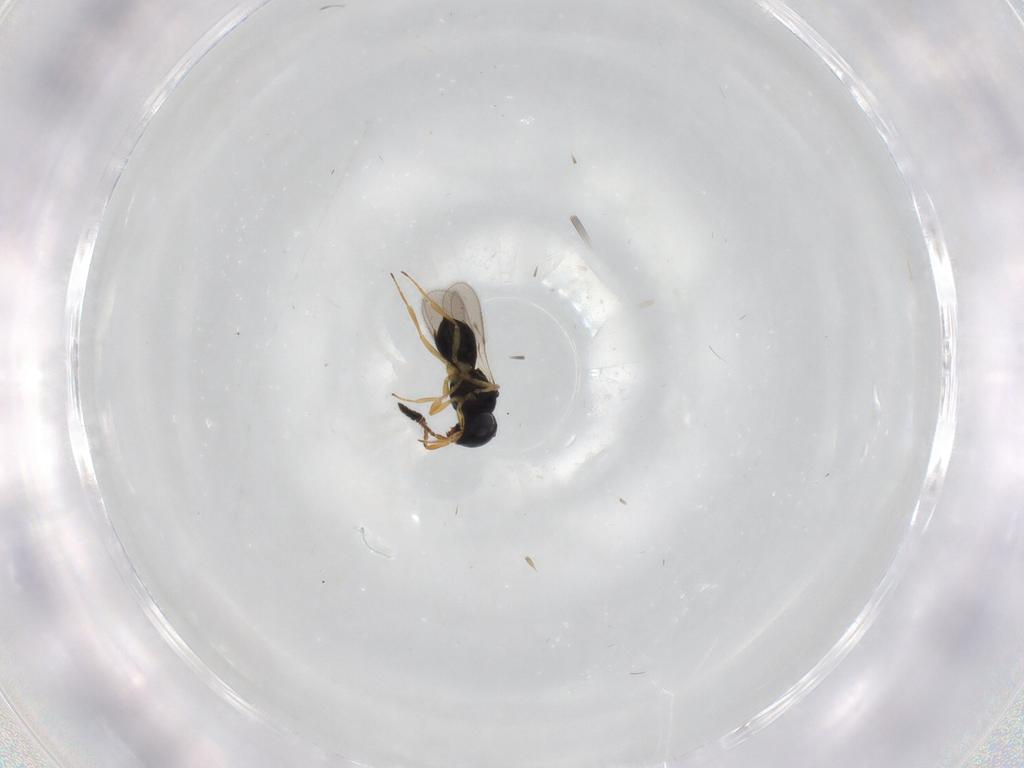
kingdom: Animalia
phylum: Arthropoda
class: Insecta
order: Hymenoptera
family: Scelionidae
